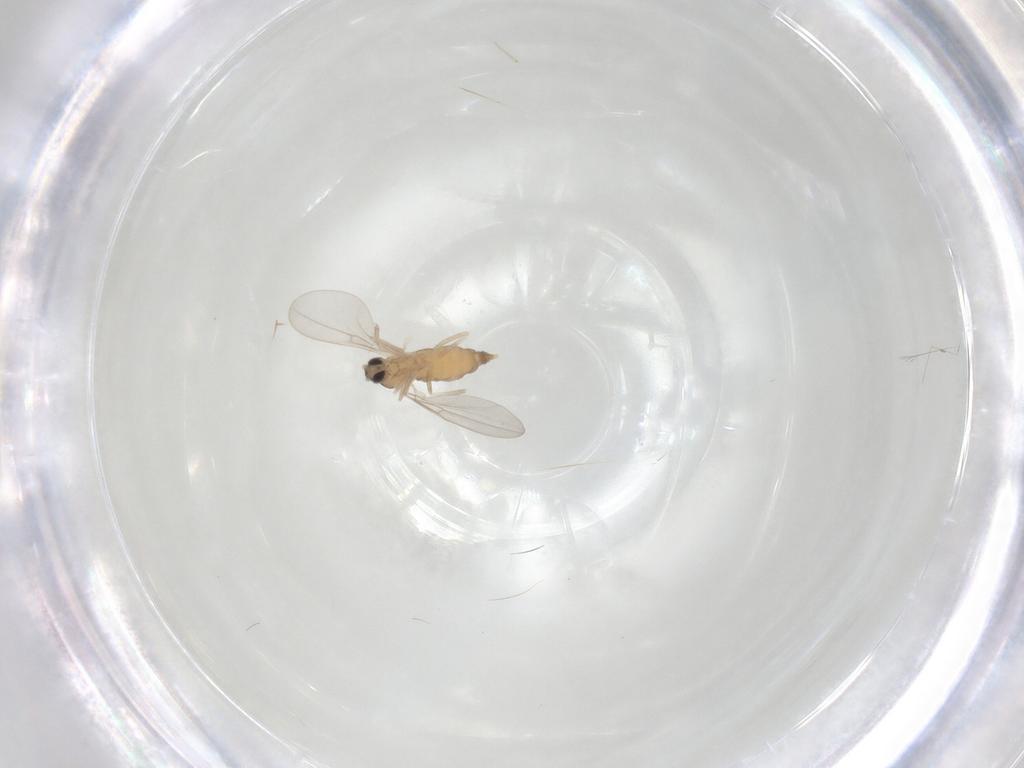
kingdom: Animalia
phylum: Arthropoda
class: Insecta
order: Diptera
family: Cecidomyiidae
